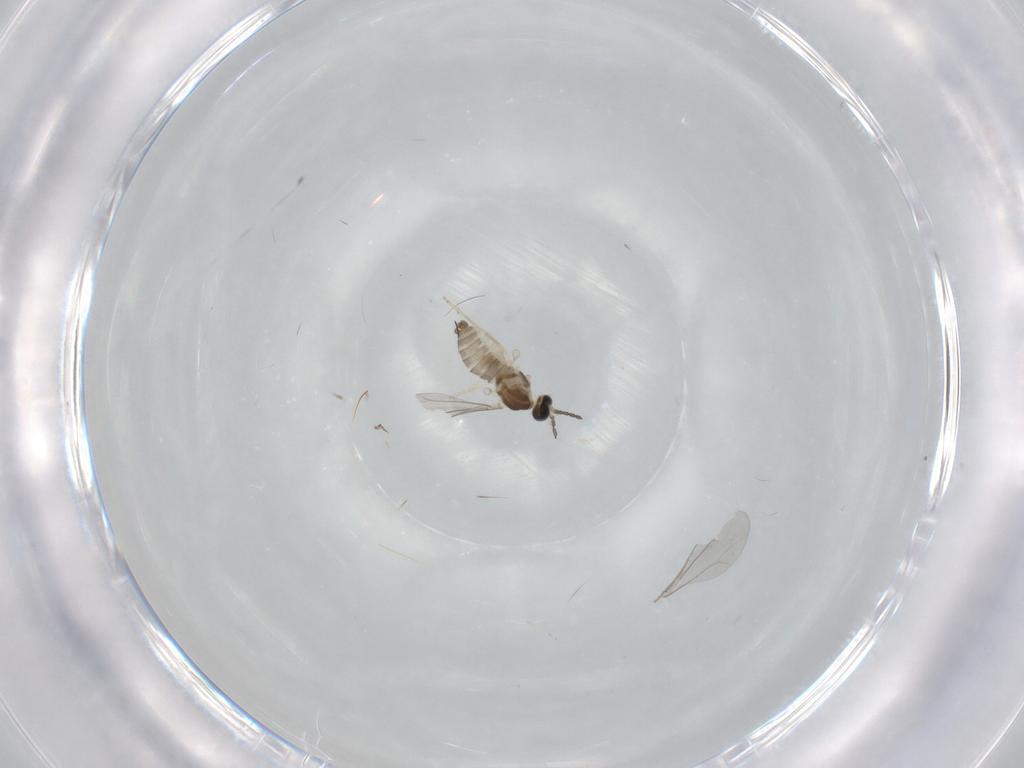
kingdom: Animalia
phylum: Arthropoda
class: Insecta
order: Diptera
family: Cecidomyiidae
